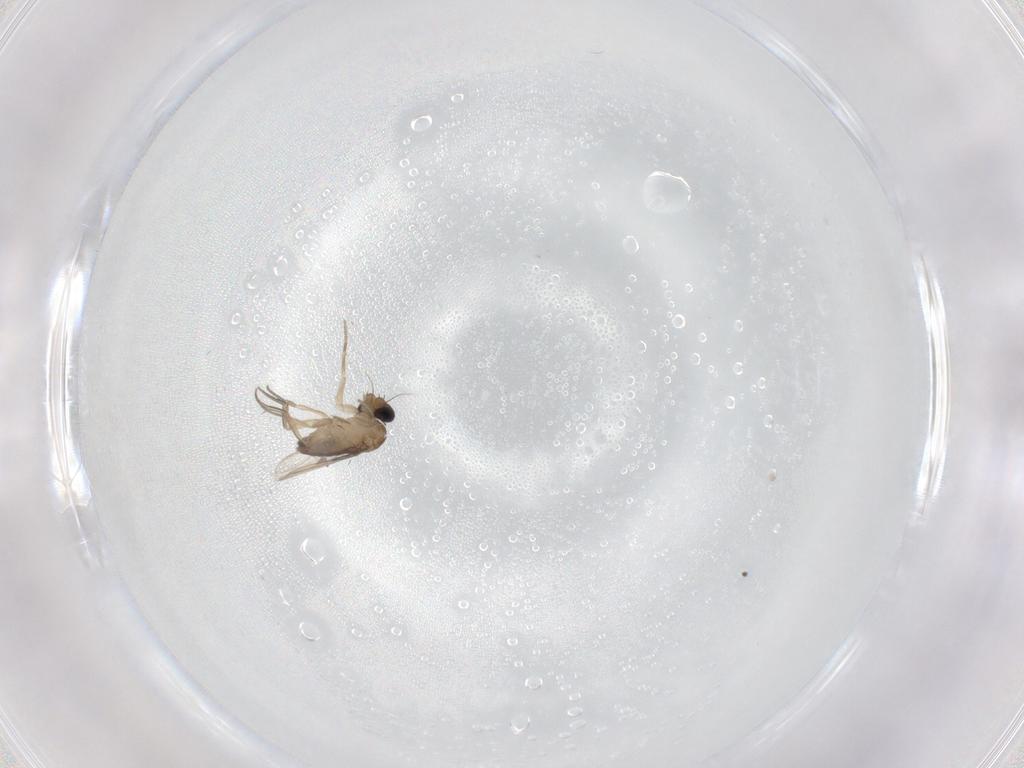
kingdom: Animalia
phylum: Arthropoda
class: Insecta
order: Diptera
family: Phoridae
